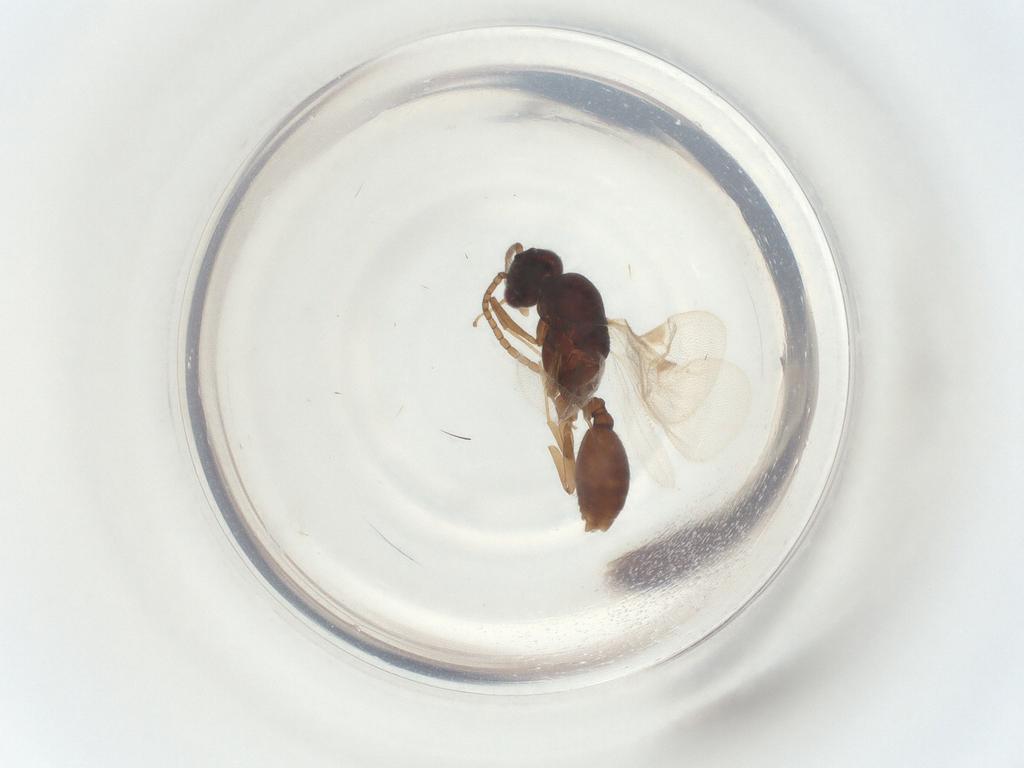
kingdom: Animalia
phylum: Arthropoda
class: Insecta
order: Hymenoptera
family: Formicidae
